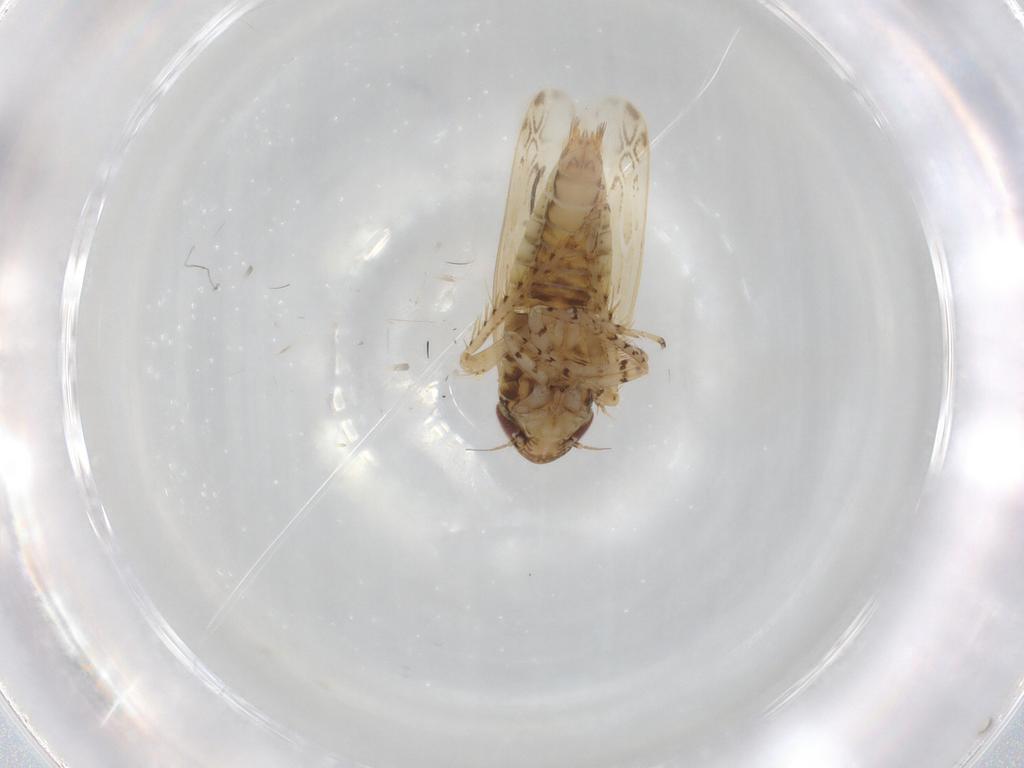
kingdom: Animalia
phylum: Arthropoda
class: Insecta
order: Hemiptera
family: Cicadellidae
